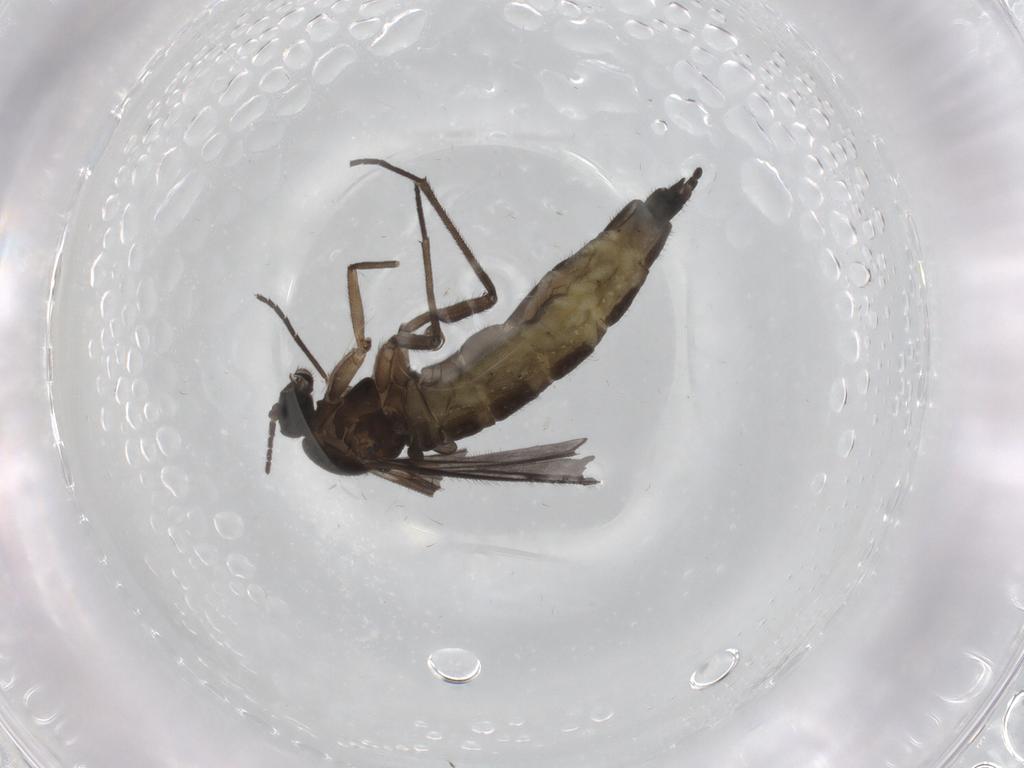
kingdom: Animalia
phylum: Arthropoda
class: Insecta
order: Diptera
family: Sciaridae
